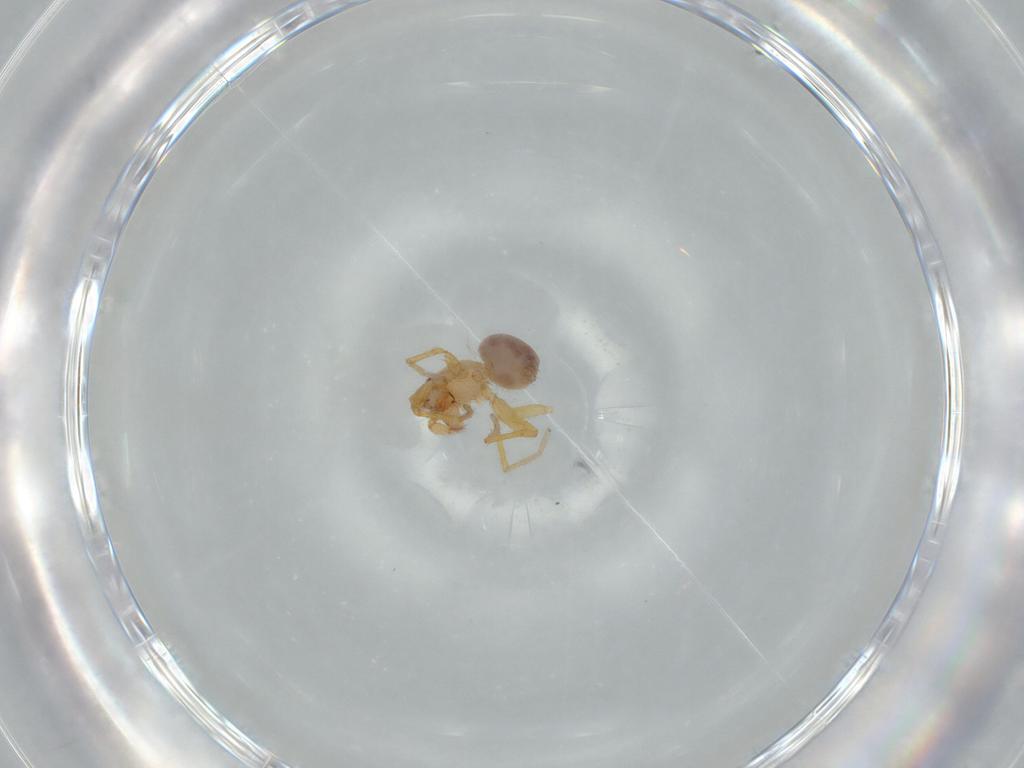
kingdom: Animalia
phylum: Arthropoda
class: Arachnida
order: Araneae
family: Oonopidae
